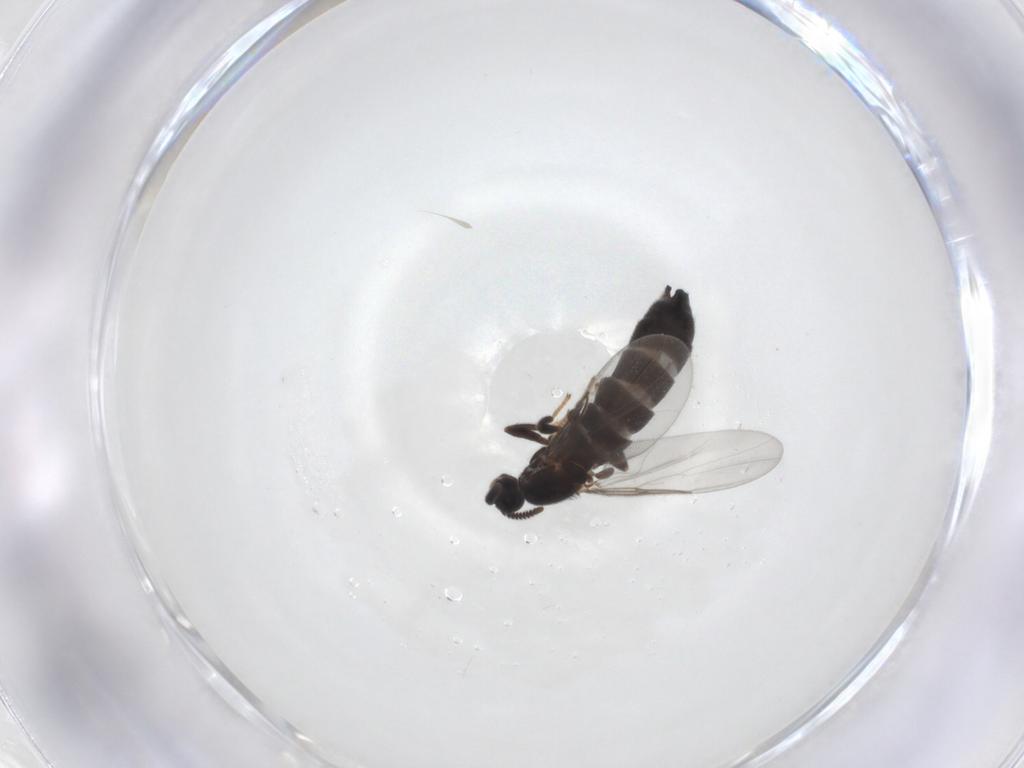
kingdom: Animalia
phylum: Arthropoda
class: Insecta
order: Diptera
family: Scatopsidae
